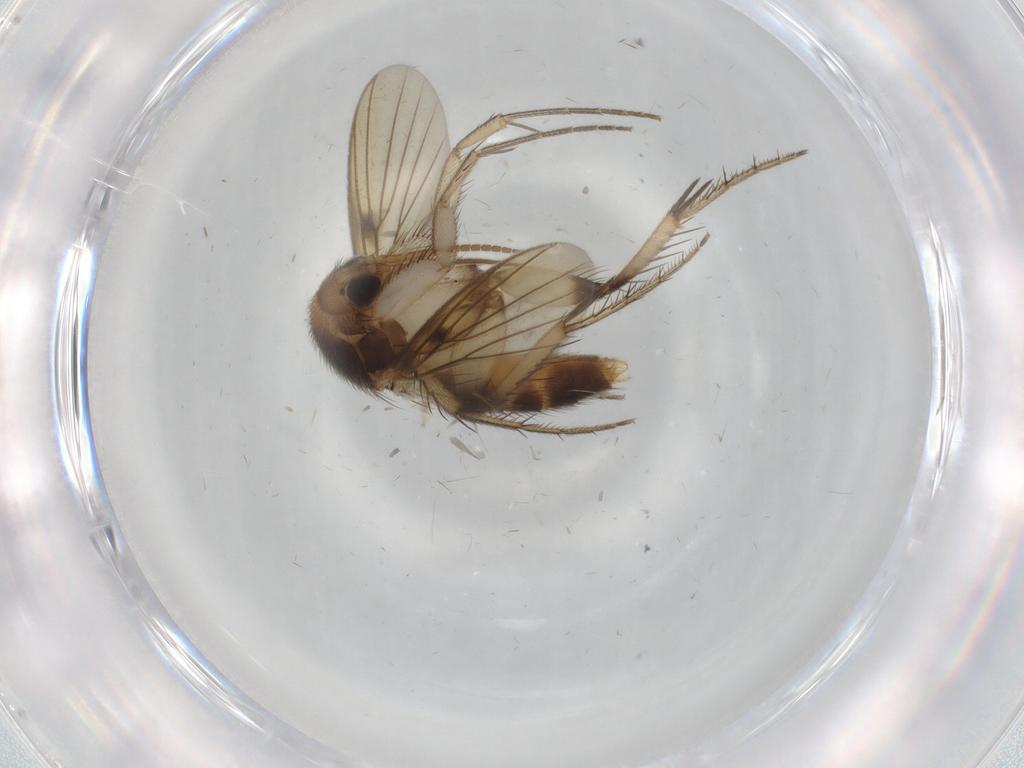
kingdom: Animalia
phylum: Arthropoda
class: Insecta
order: Diptera
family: Mycetophilidae
